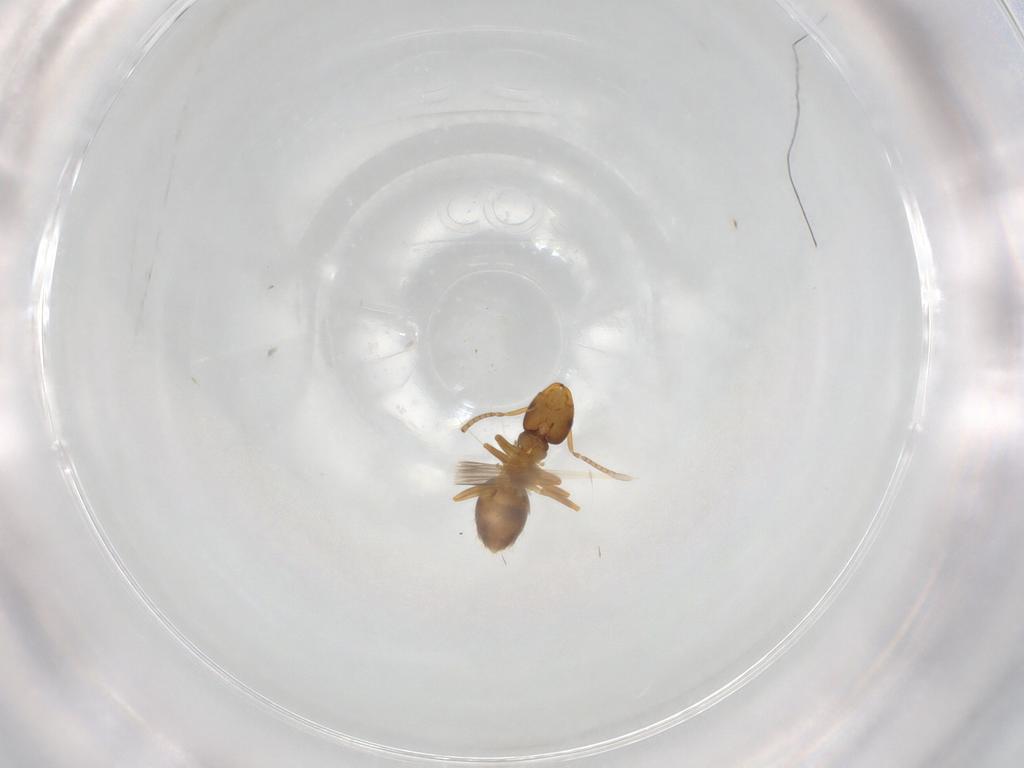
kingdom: Animalia
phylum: Arthropoda
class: Insecta
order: Hymenoptera
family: Formicidae
